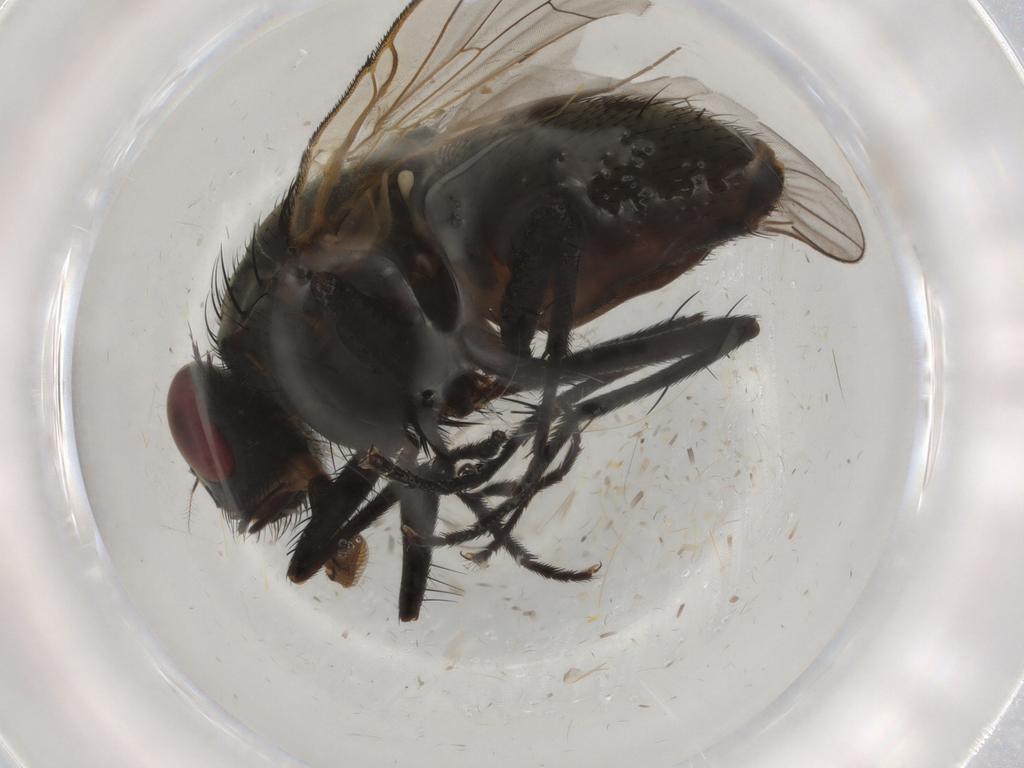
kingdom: Animalia
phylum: Arthropoda
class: Insecta
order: Diptera
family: Muscidae
